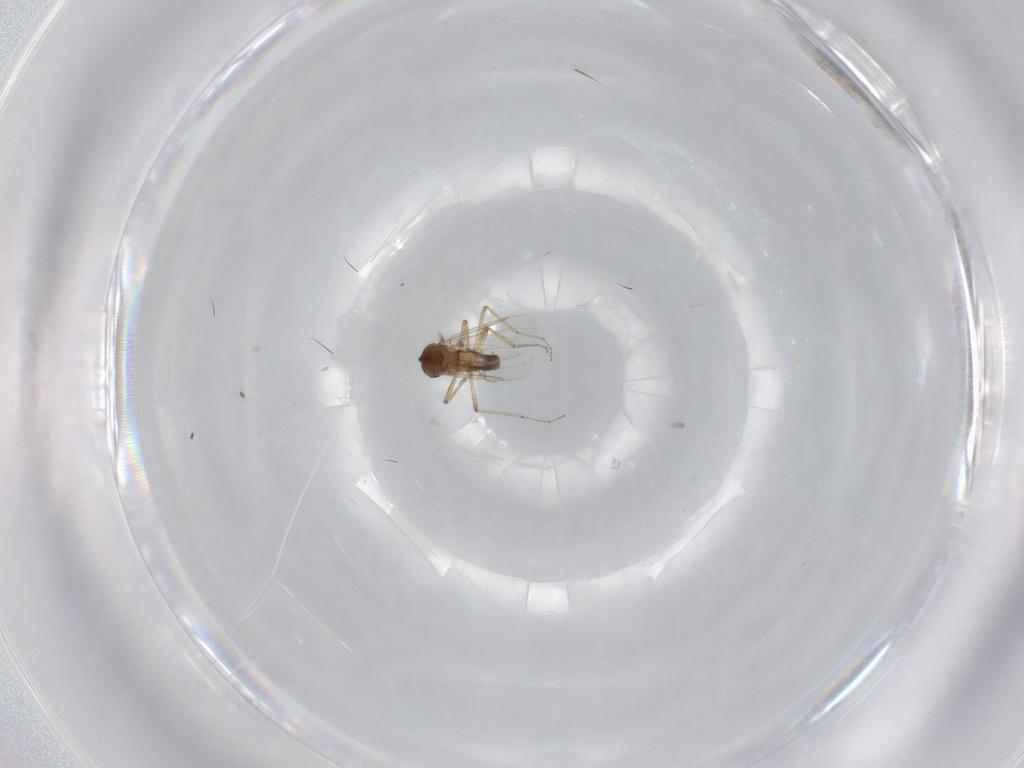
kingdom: Animalia
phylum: Arthropoda
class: Insecta
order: Diptera
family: Ceratopogonidae
